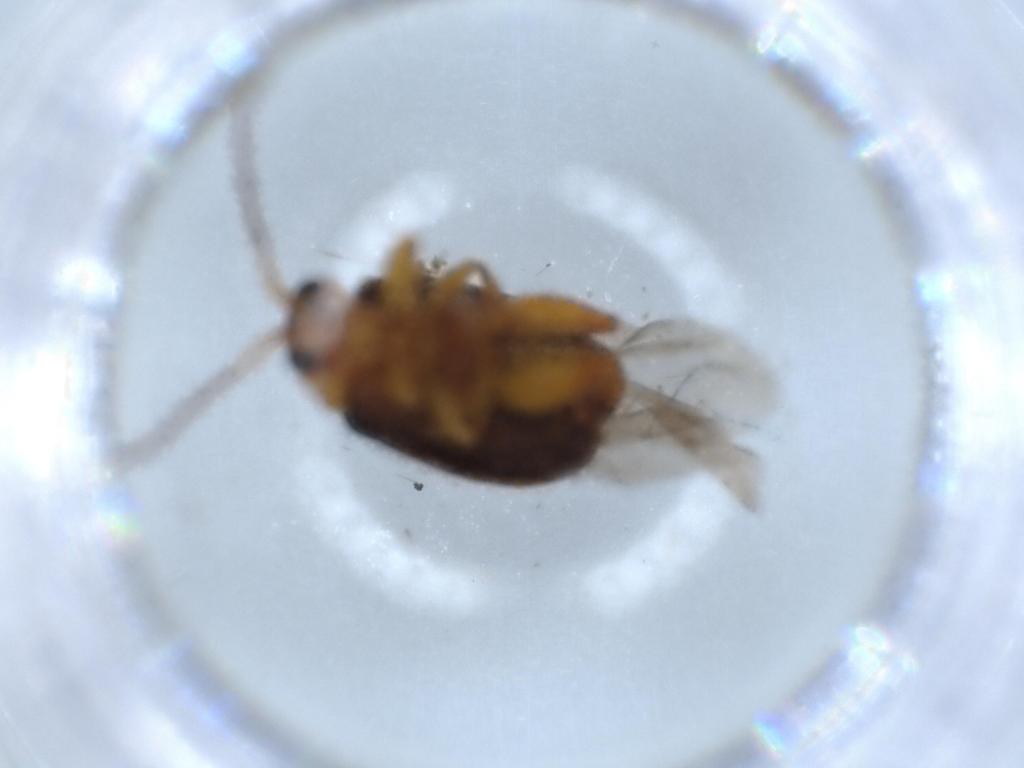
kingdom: Animalia
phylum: Arthropoda
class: Insecta
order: Coleoptera
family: Chrysomelidae
